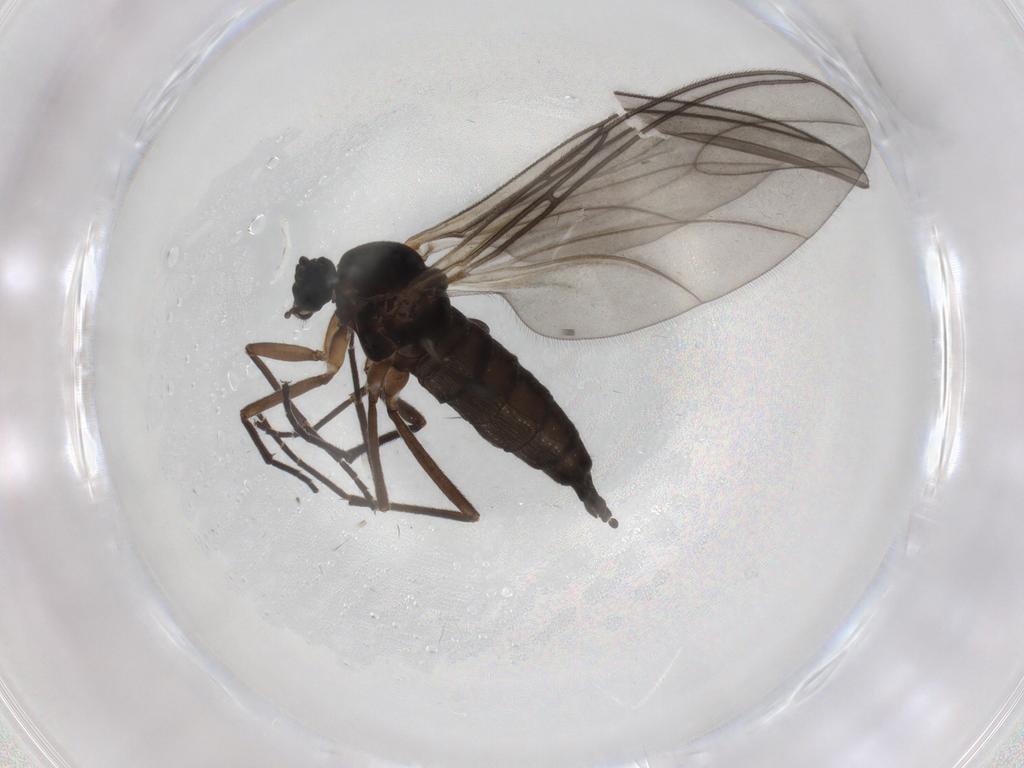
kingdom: Animalia
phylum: Arthropoda
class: Insecta
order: Diptera
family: Sciaridae
